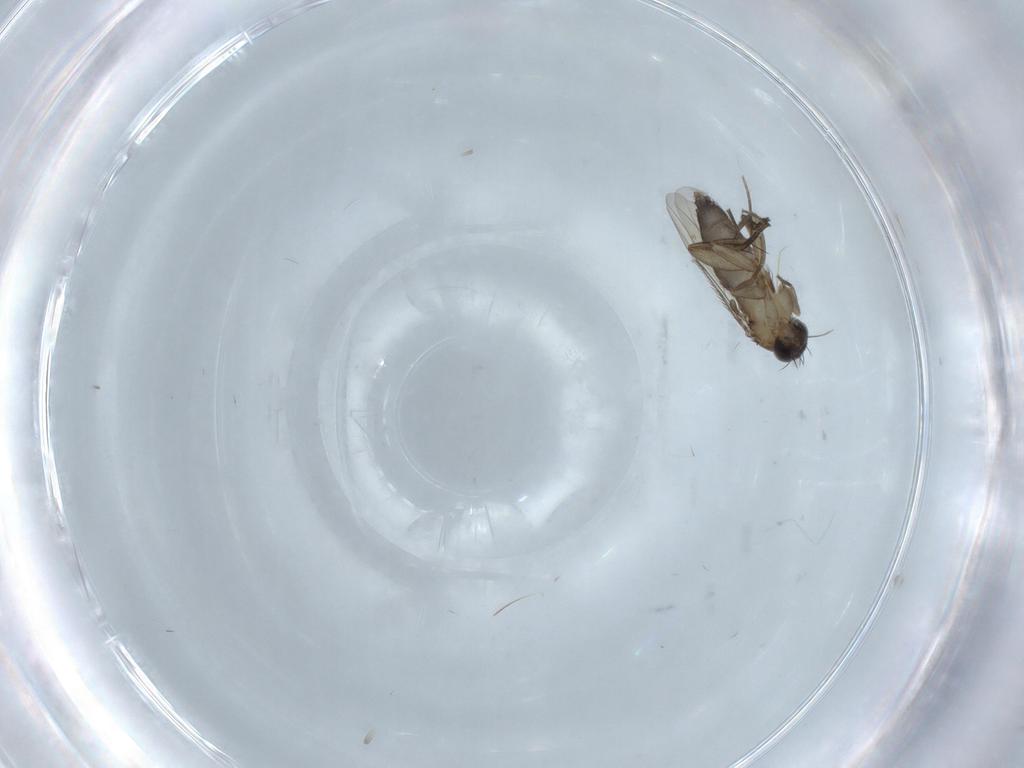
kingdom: Animalia
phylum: Arthropoda
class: Insecta
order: Diptera
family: Phoridae
